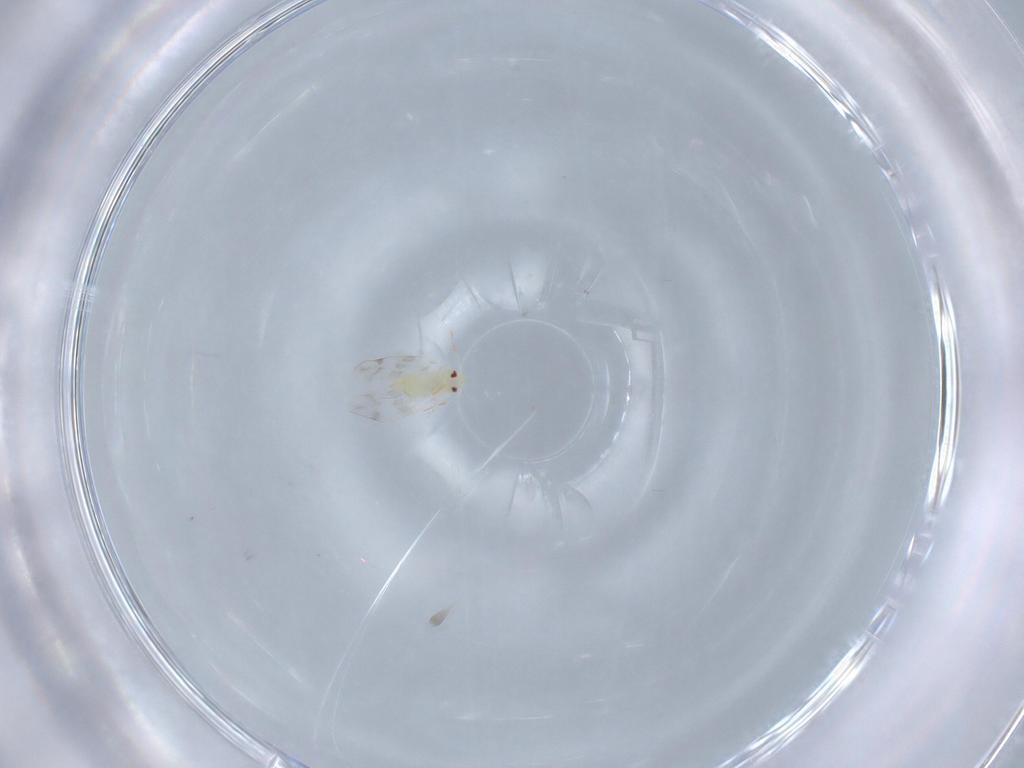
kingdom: Animalia
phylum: Arthropoda
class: Insecta
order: Hemiptera
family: Aleyrodidae
